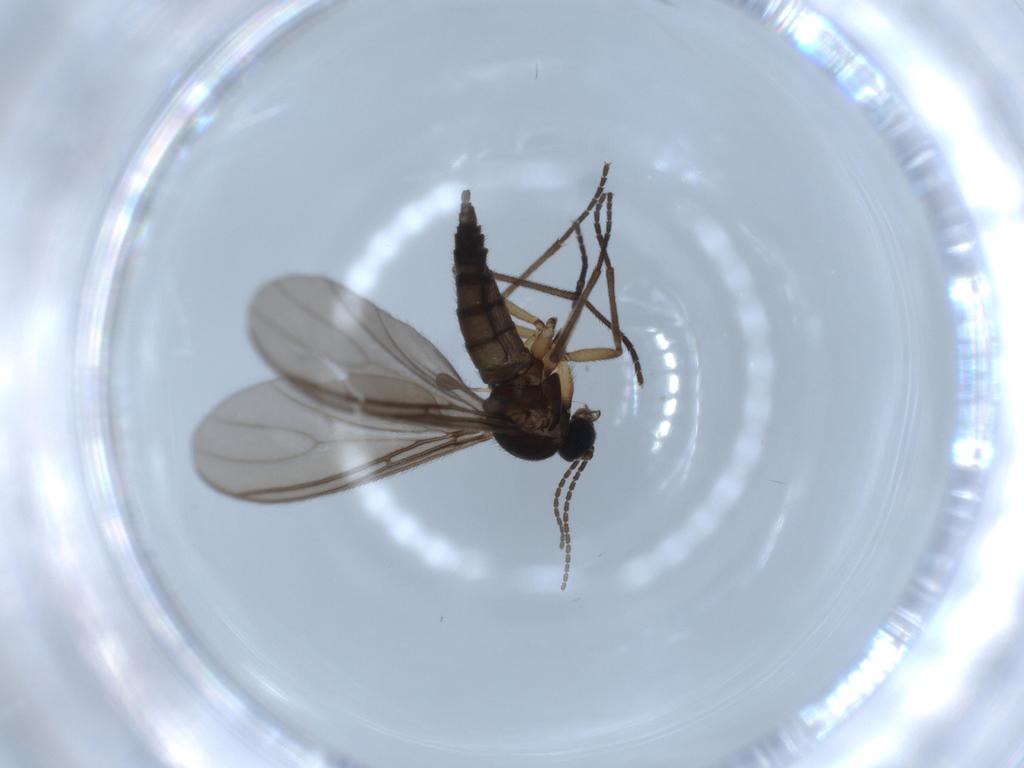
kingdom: Animalia
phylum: Arthropoda
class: Insecta
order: Diptera
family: Sciaridae
